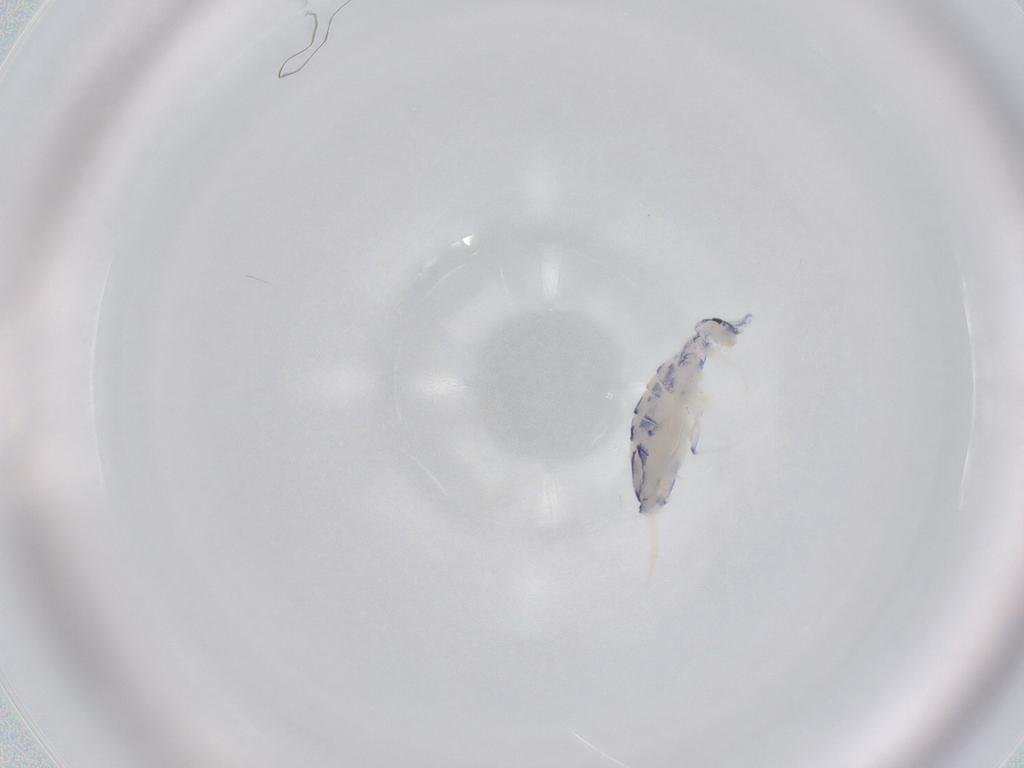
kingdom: Animalia
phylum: Arthropoda
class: Collembola
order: Entomobryomorpha
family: Entomobryidae
